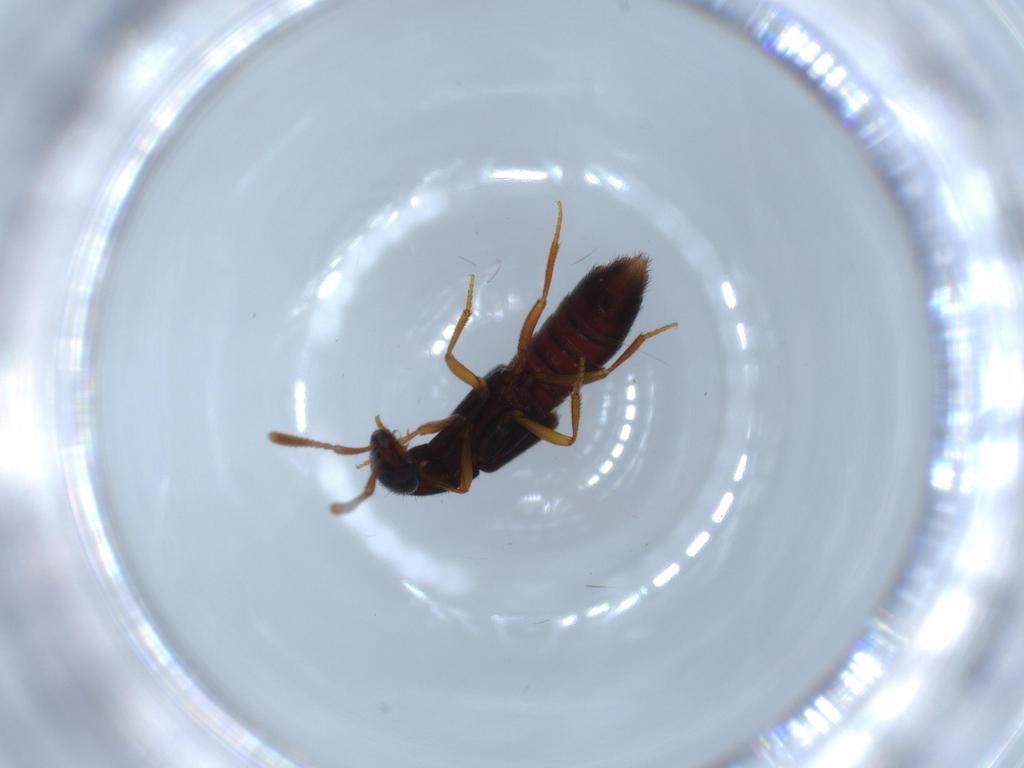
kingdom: Animalia
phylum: Arthropoda
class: Insecta
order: Coleoptera
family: Staphylinidae
